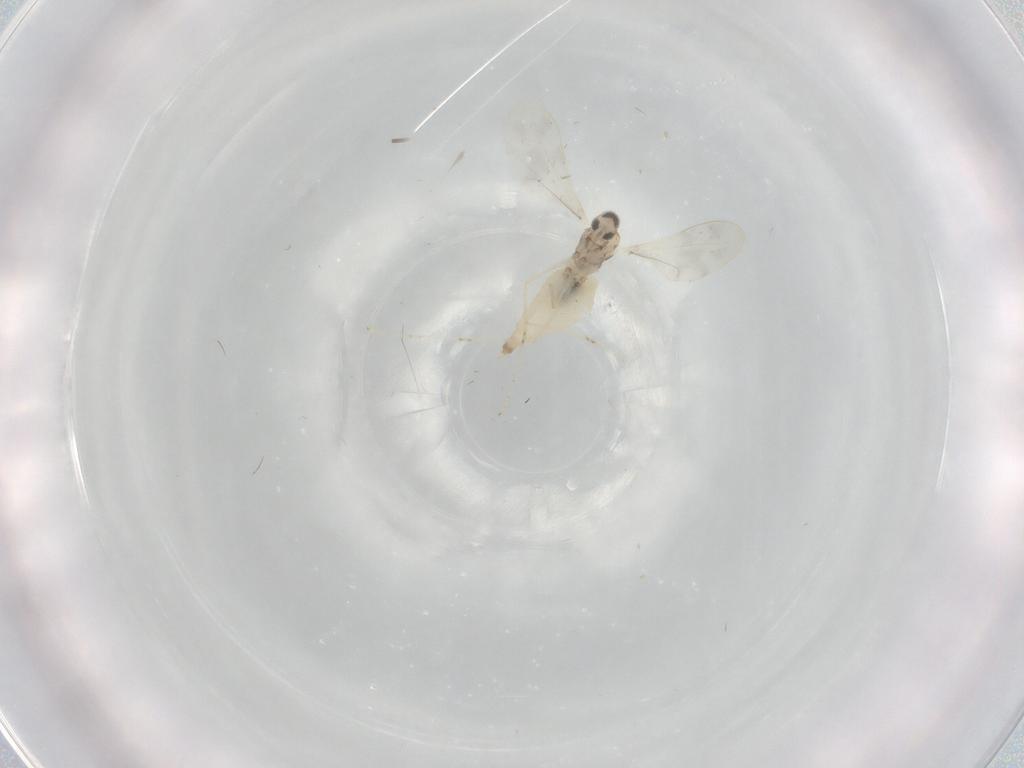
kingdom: Animalia
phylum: Arthropoda
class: Insecta
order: Diptera
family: Cecidomyiidae
